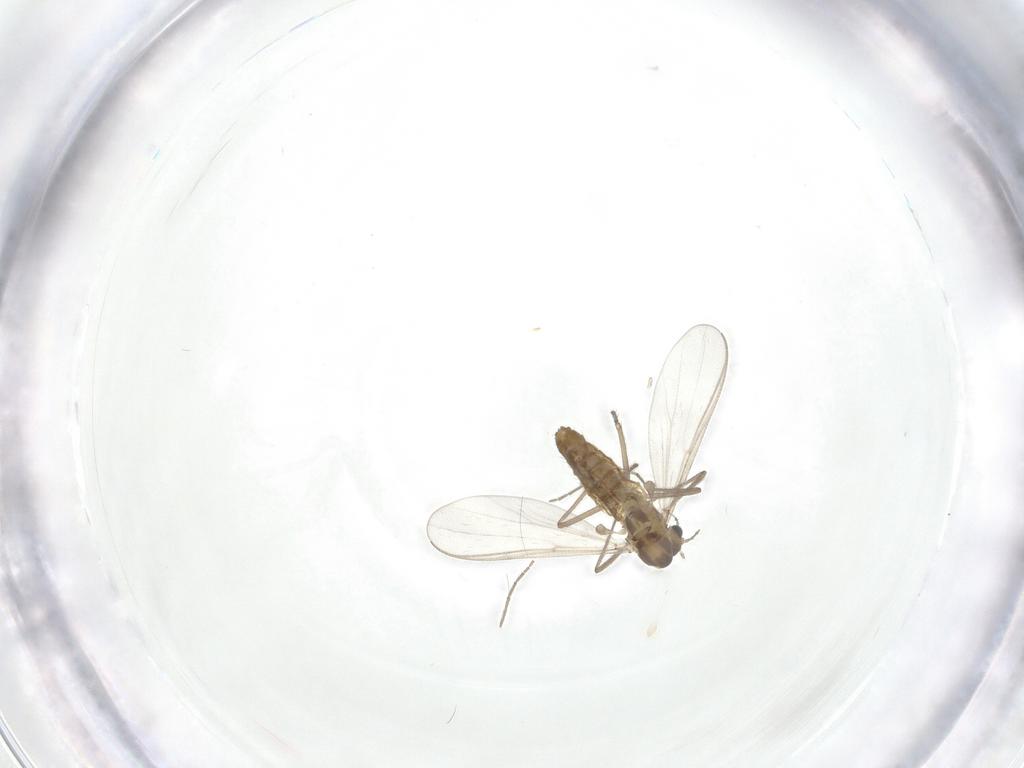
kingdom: Animalia
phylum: Arthropoda
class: Insecta
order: Diptera
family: Chironomidae
